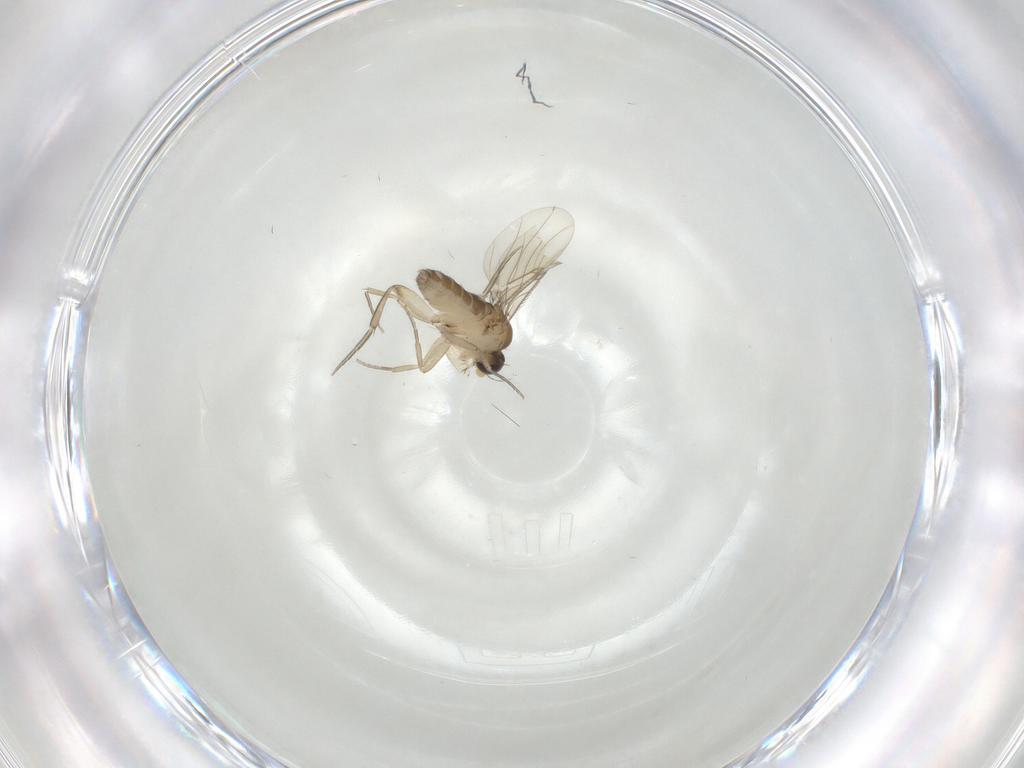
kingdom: Animalia
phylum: Arthropoda
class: Insecta
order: Diptera
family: Phoridae
